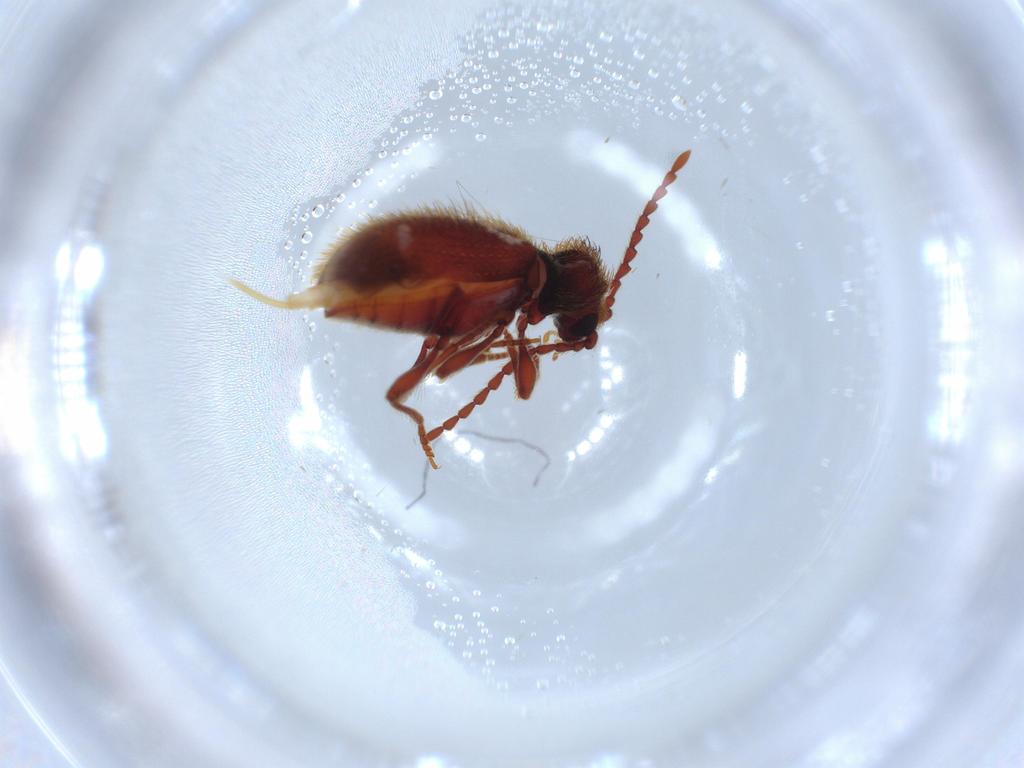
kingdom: Animalia
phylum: Arthropoda
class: Insecta
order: Coleoptera
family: Ptinidae
